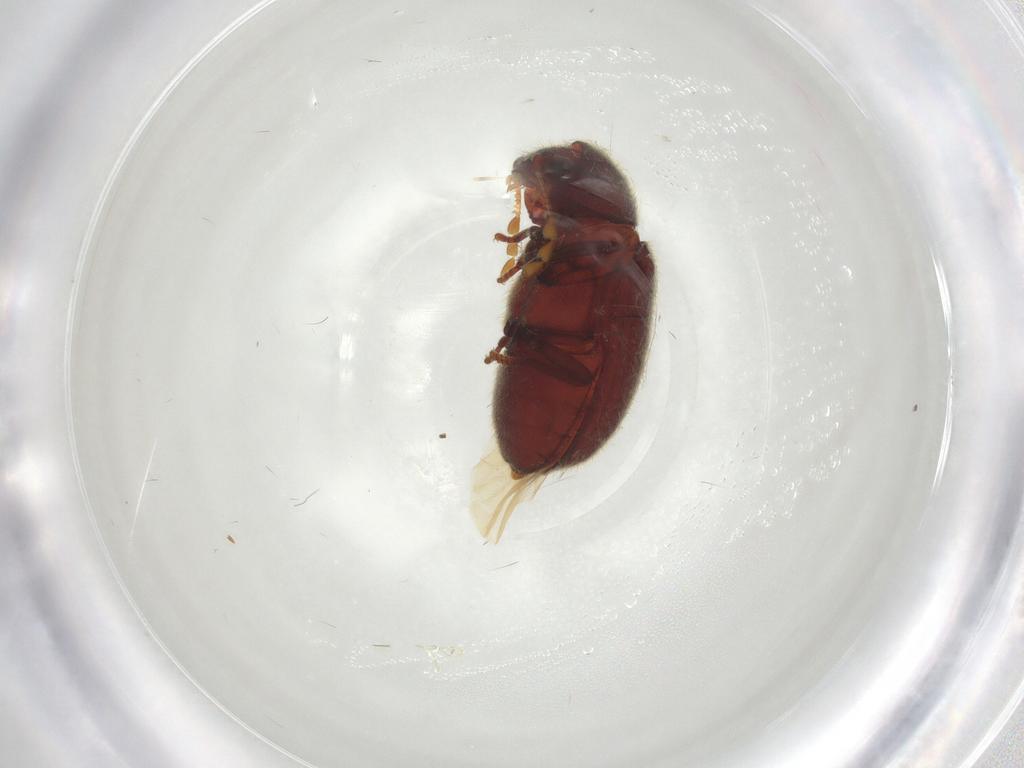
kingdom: Animalia
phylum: Arthropoda
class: Insecta
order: Coleoptera
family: Ptinidae
